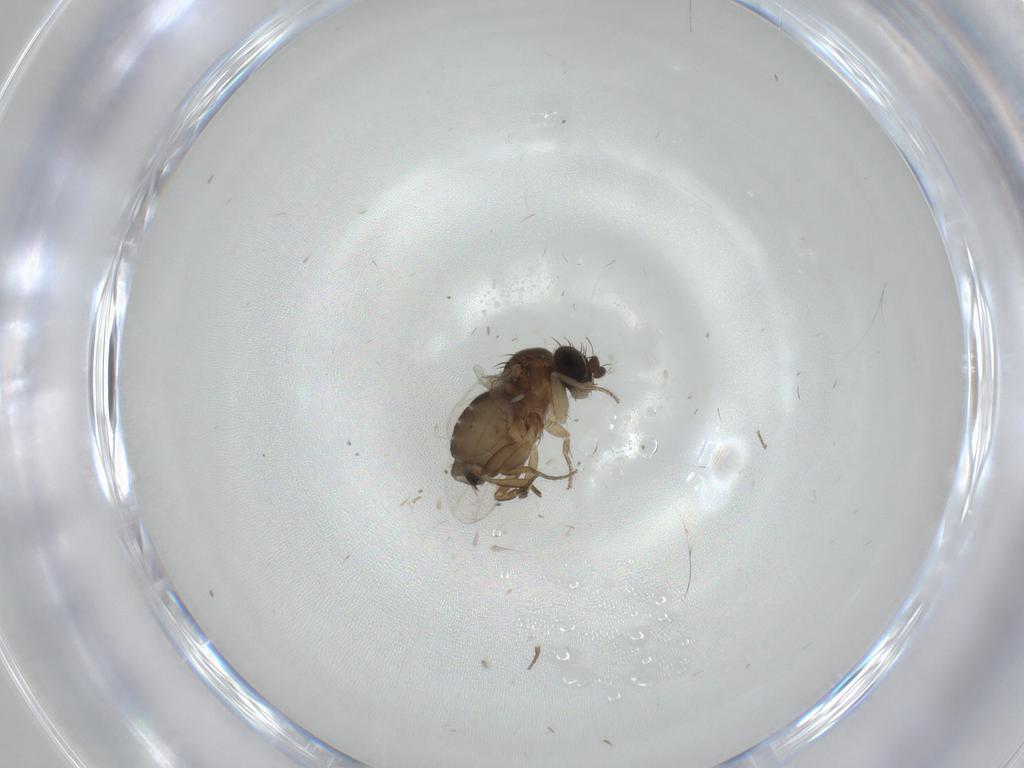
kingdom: Animalia
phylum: Arthropoda
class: Insecta
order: Diptera
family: Chironomidae
